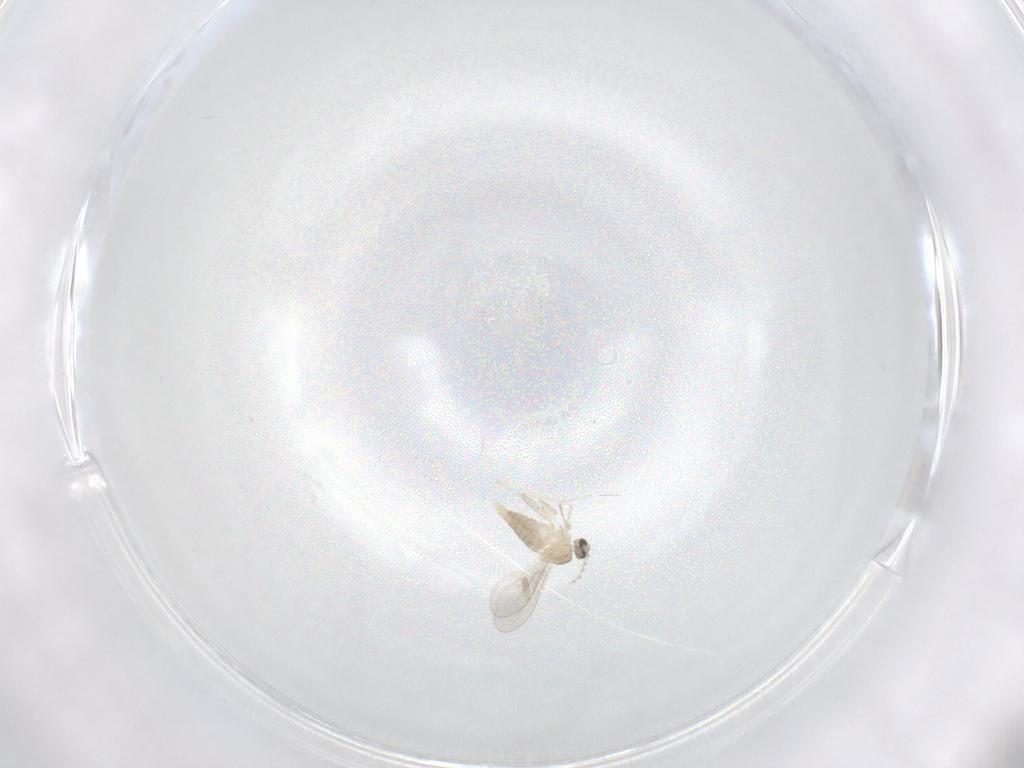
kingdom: Animalia
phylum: Arthropoda
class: Insecta
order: Diptera
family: Cecidomyiidae
